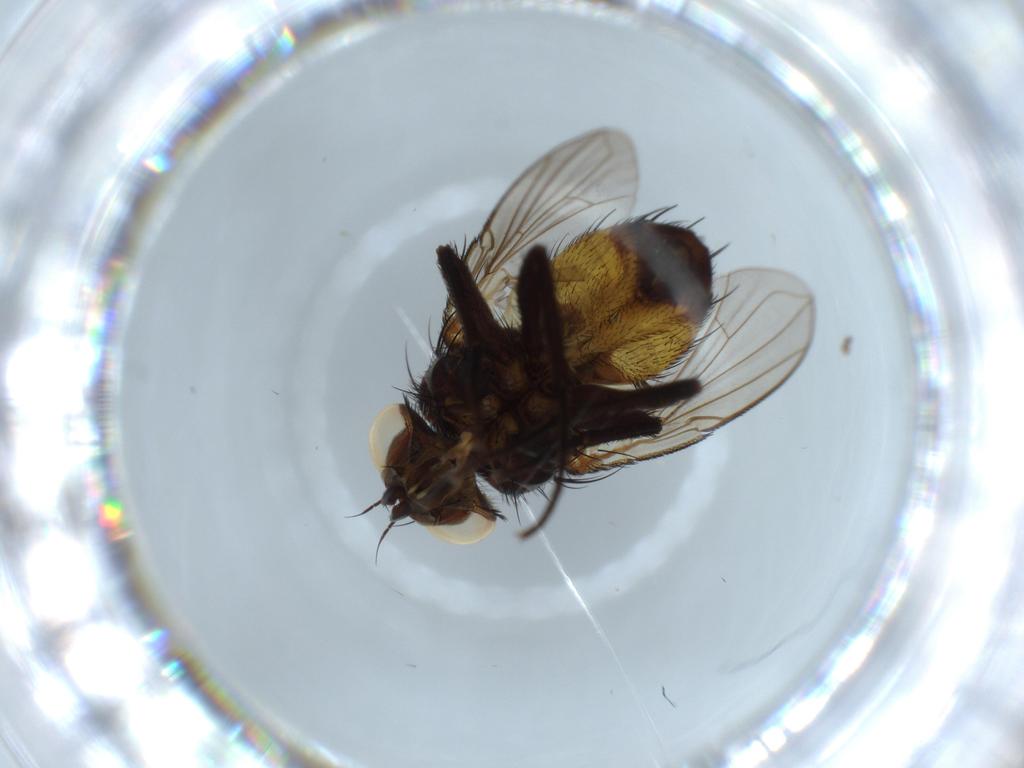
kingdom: Animalia
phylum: Arthropoda
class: Insecta
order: Diptera
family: Tachinidae
